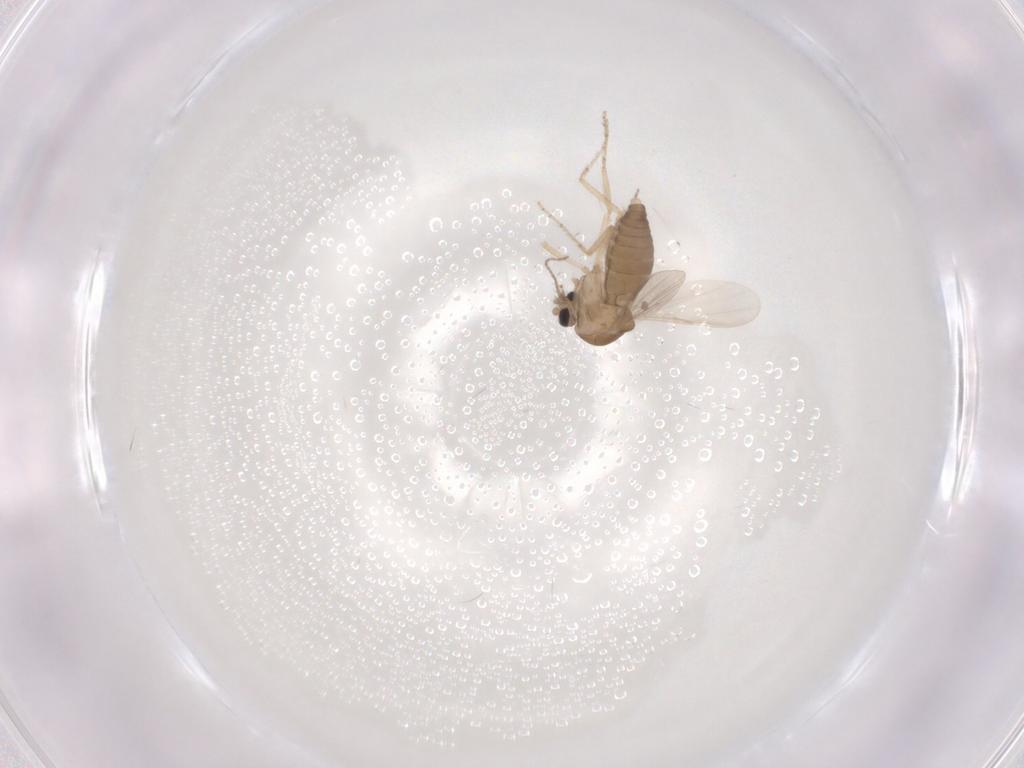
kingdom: Animalia
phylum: Arthropoda
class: Insecta
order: Diptera
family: Ceratopogonidae
